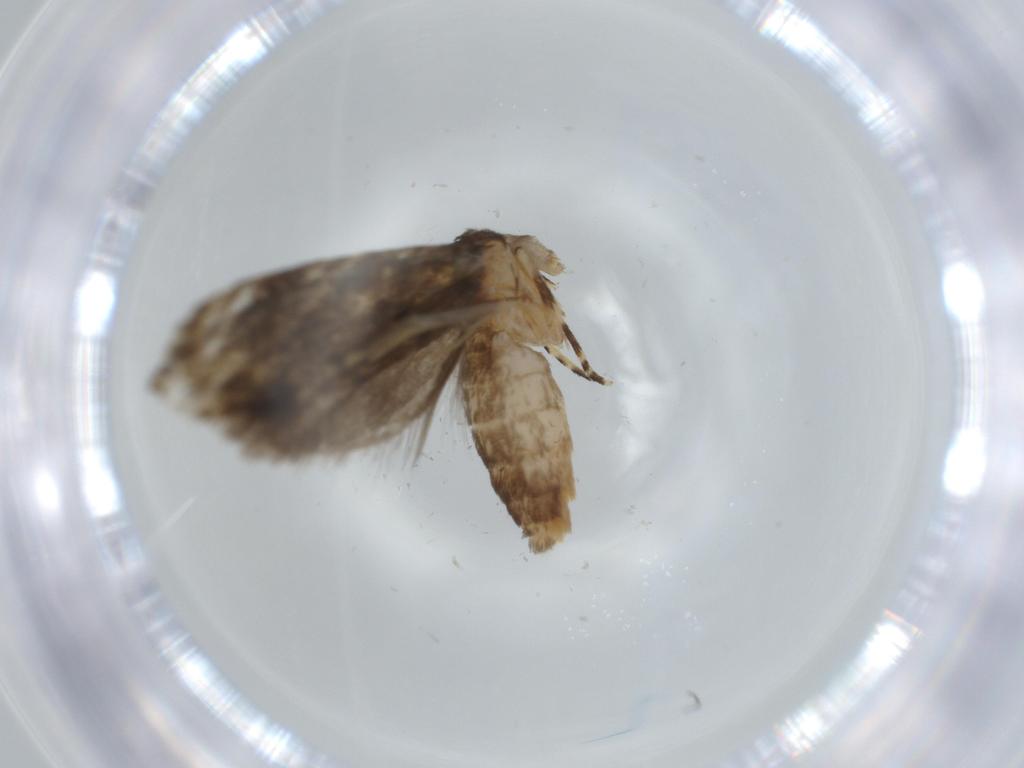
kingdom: Animalia
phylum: Arthropoda
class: Insecta
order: Lepidoptera
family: Tineidae
